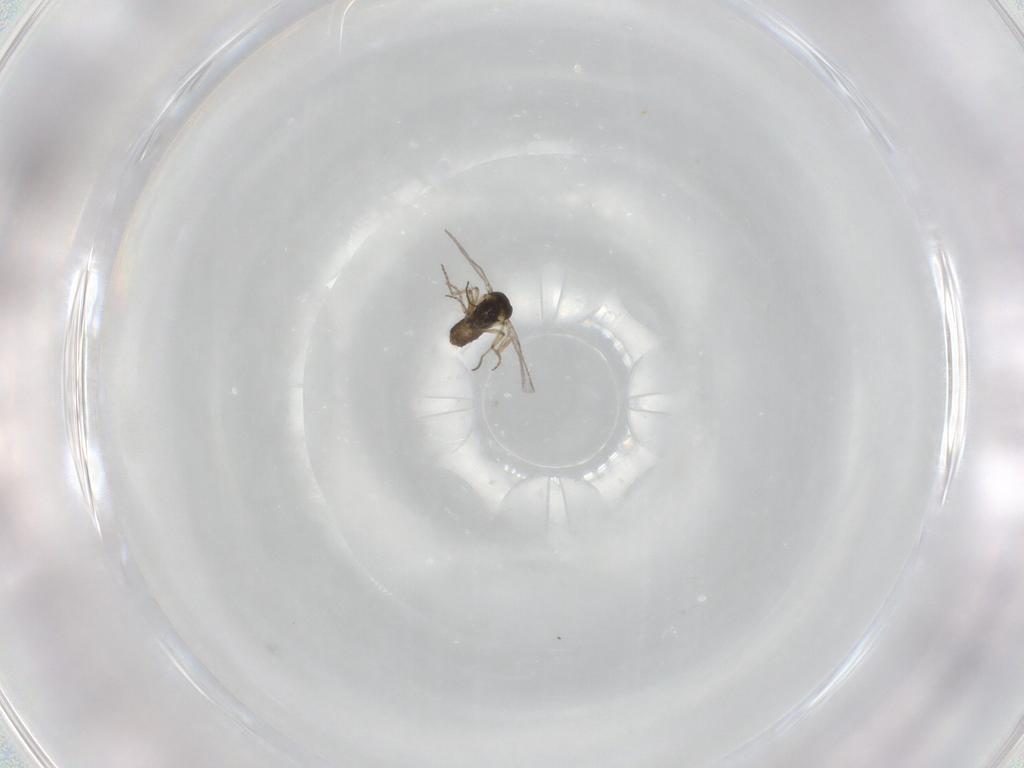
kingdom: Animalia
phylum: Arthropoda
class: Insecta
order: Diptera
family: Ceratopogonidae
